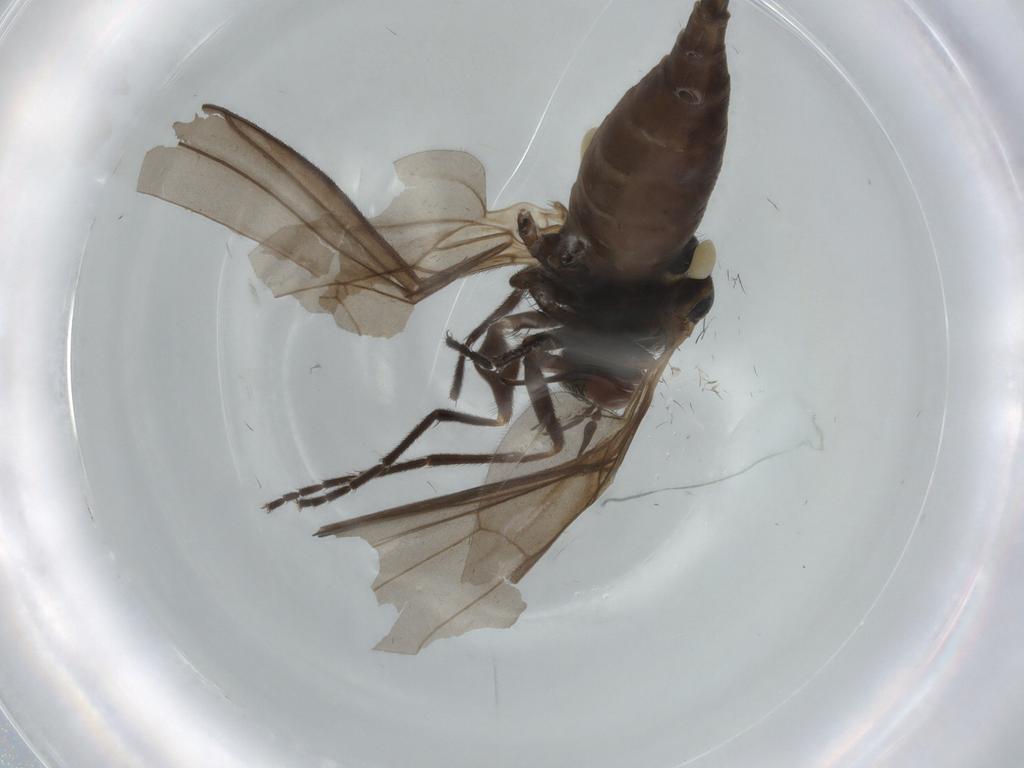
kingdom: Animalia
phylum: Arthropoda
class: Insecta
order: Diptera
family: Empididae
